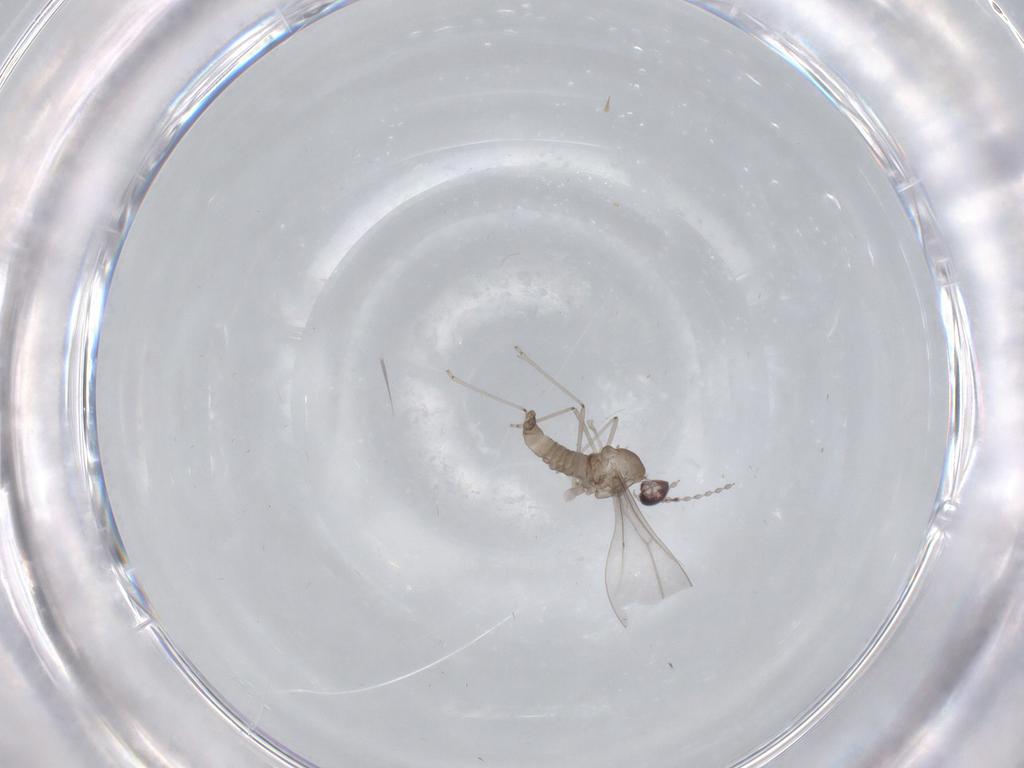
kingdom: Animalia
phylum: Arthropoda
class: Insecta
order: Diptera
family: Cecidomyiidae
